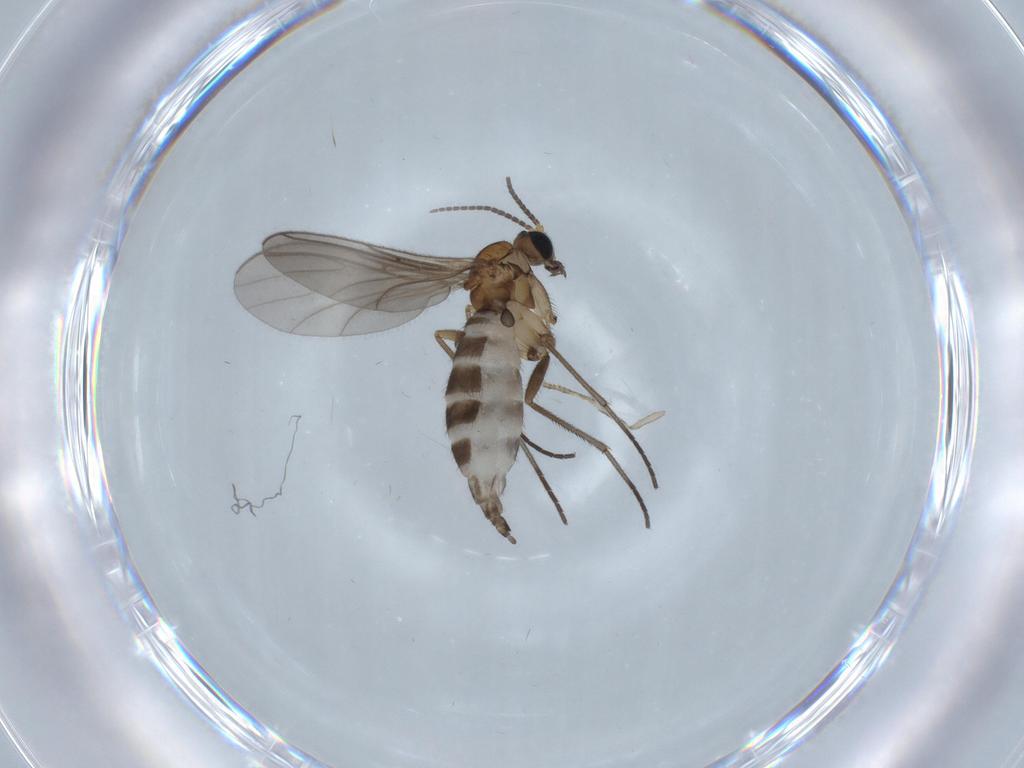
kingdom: Animalia
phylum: Arthropoda
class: Insecta
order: Diptera
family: Sciaridae
